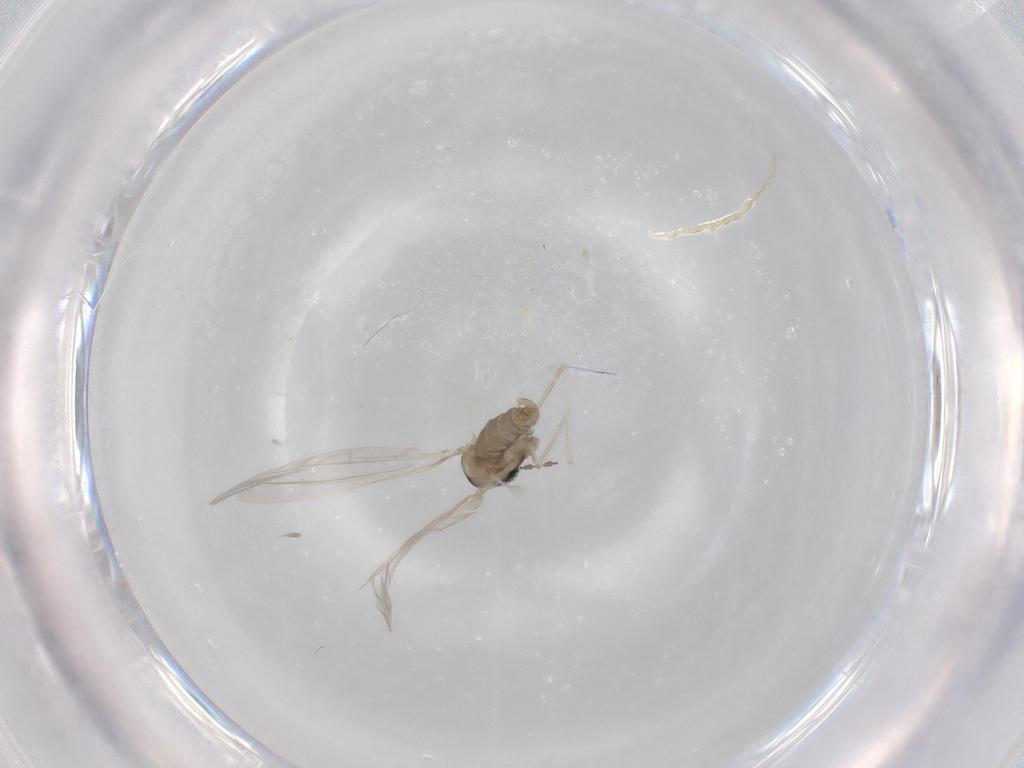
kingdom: Animalia
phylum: Arthropoda
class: Insecta
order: Diptera
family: Cecidomyiidae
